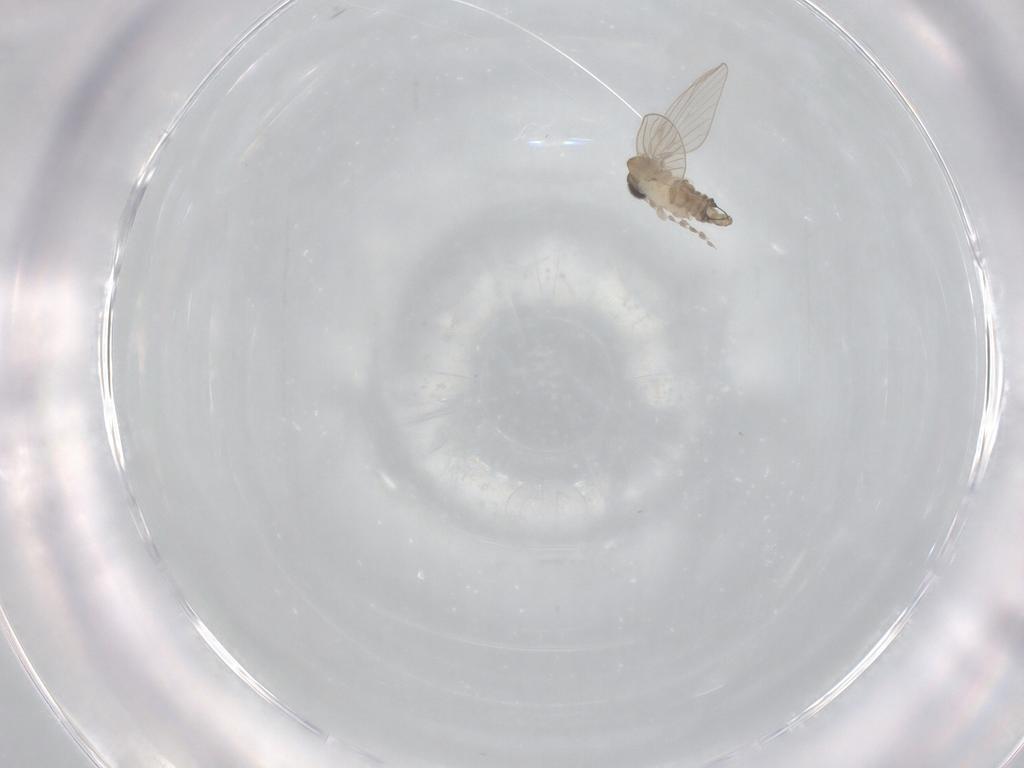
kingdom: Animalia
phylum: Arthropoda
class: Insecta
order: Diptera
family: Psychodidae
